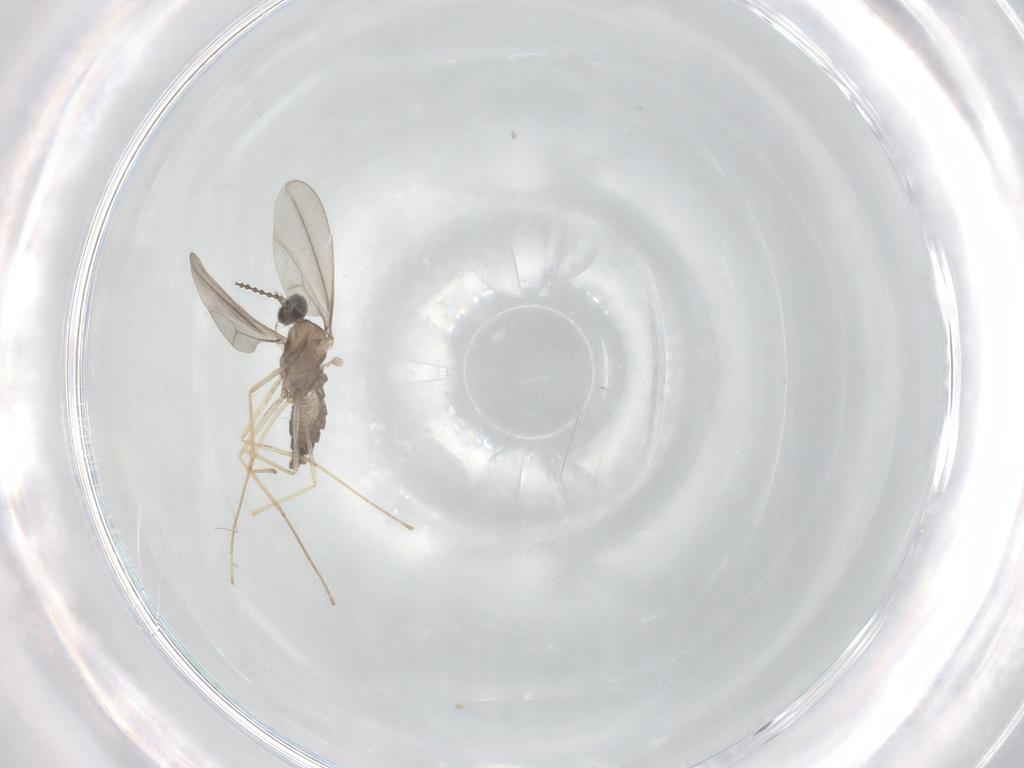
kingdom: Animalia
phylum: Arthropoda
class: Insecta
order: Diptera
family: Cecidomyiidae
